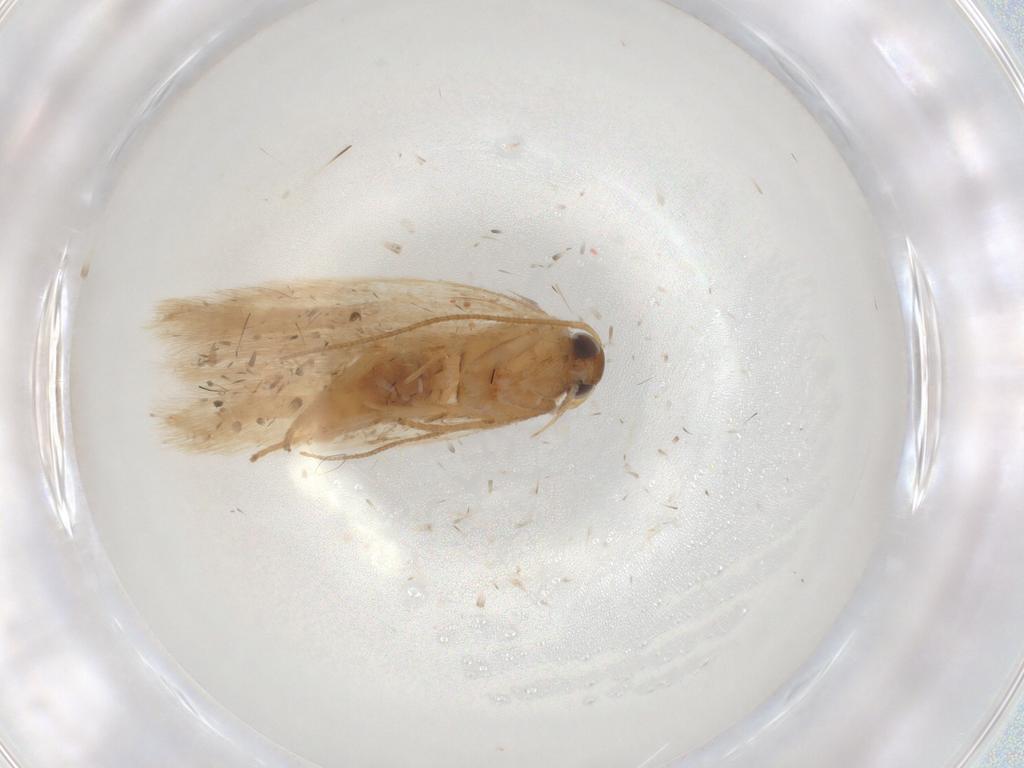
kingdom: Animalia
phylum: Arthropoda
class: Insecta
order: Lepidoptera
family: Gelechiidae
